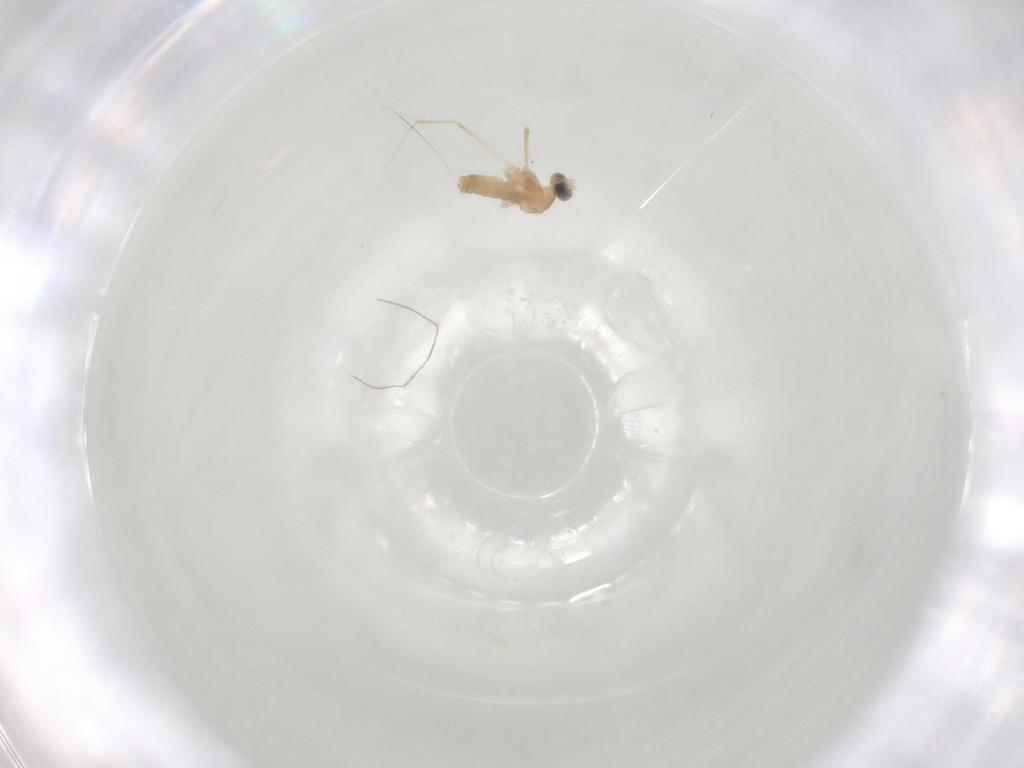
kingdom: Animalia
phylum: Arthropoda
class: Insecta
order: Diptera
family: Cecidomyiidae
